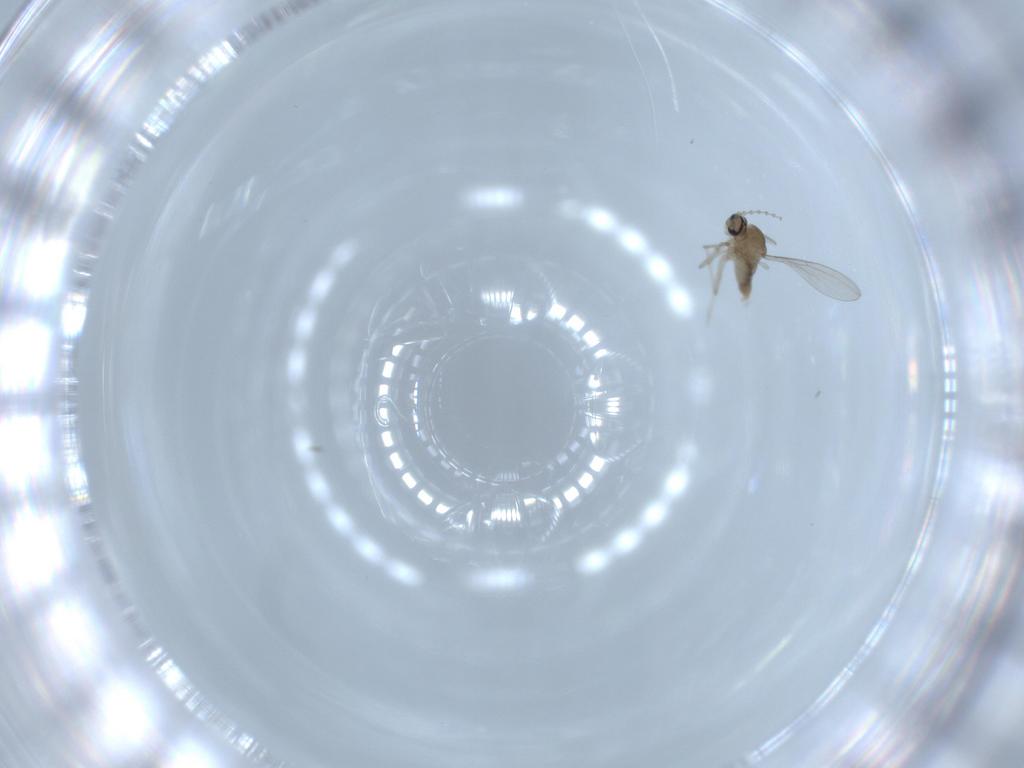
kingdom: Animalia
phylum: Arthropoda
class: Insecta
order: Diptera
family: Cecidomyiidae
